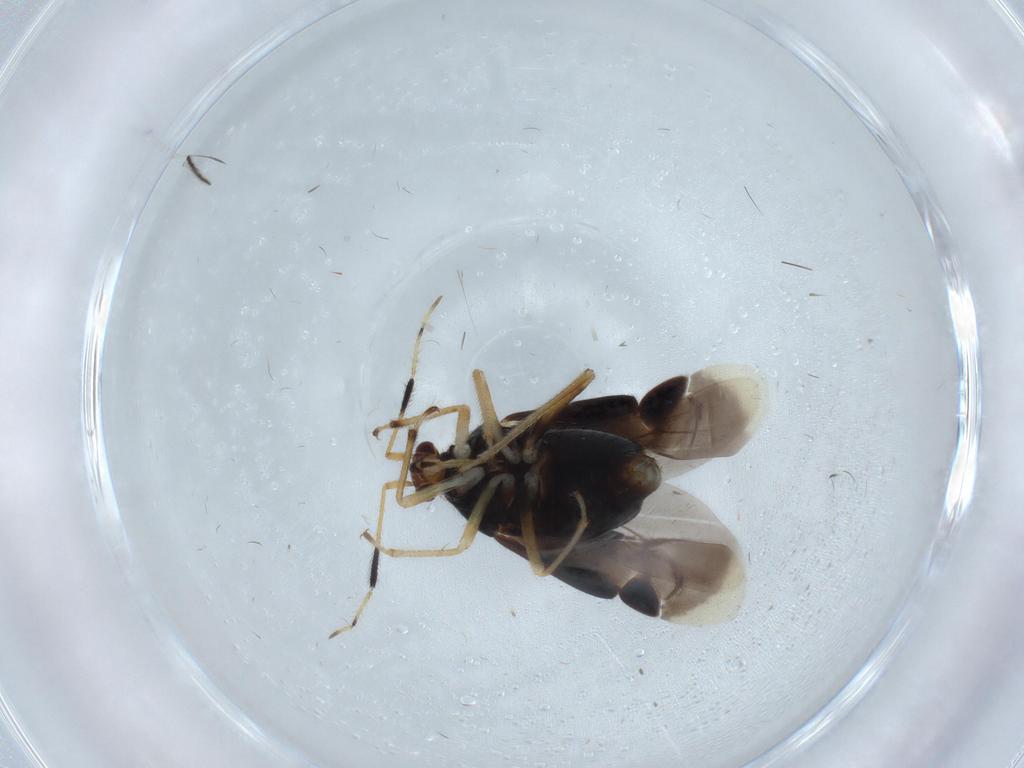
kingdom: Animalia
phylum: Arthropoda
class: Insecta
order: Hemiptera
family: Miridae
